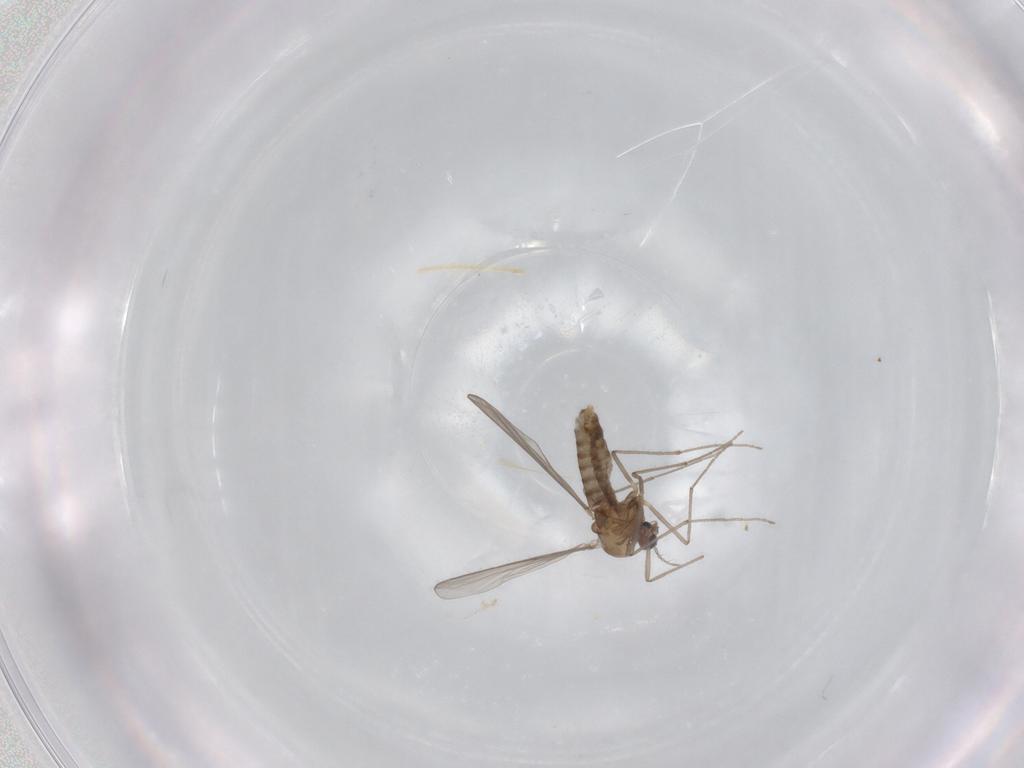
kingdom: Animalia
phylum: Arthropoda
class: Insecta
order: Diptera
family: Chironomidae
